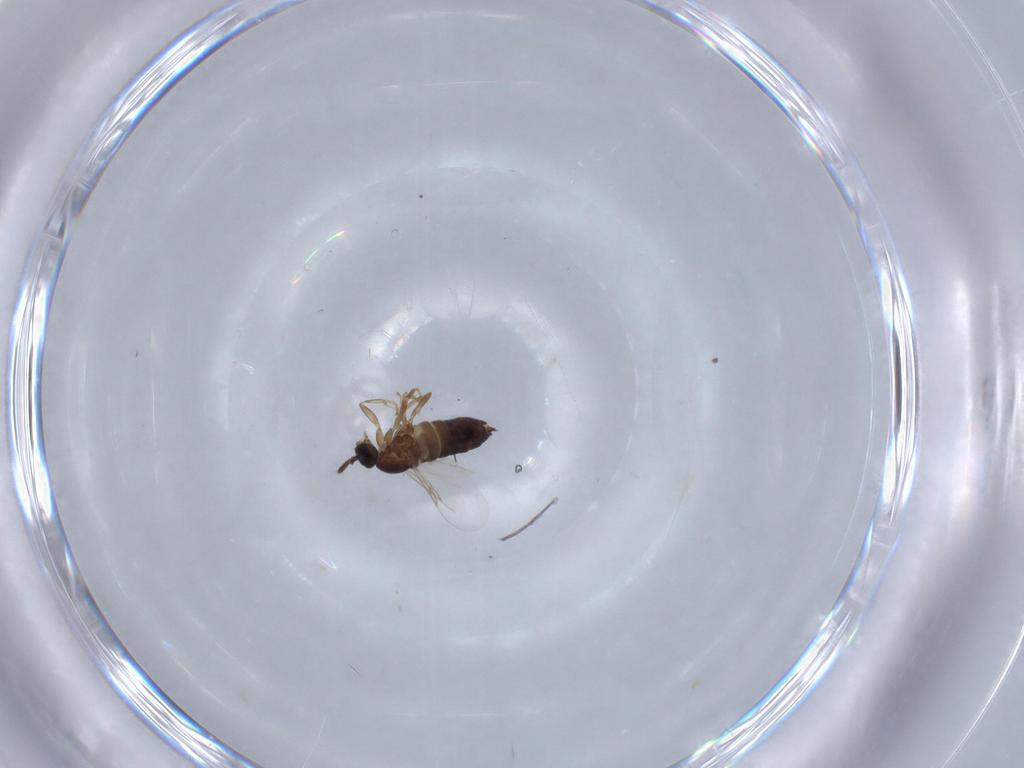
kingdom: Animalia
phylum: Arthropoda
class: Insecta
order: Diptera
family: Scatopsidae
